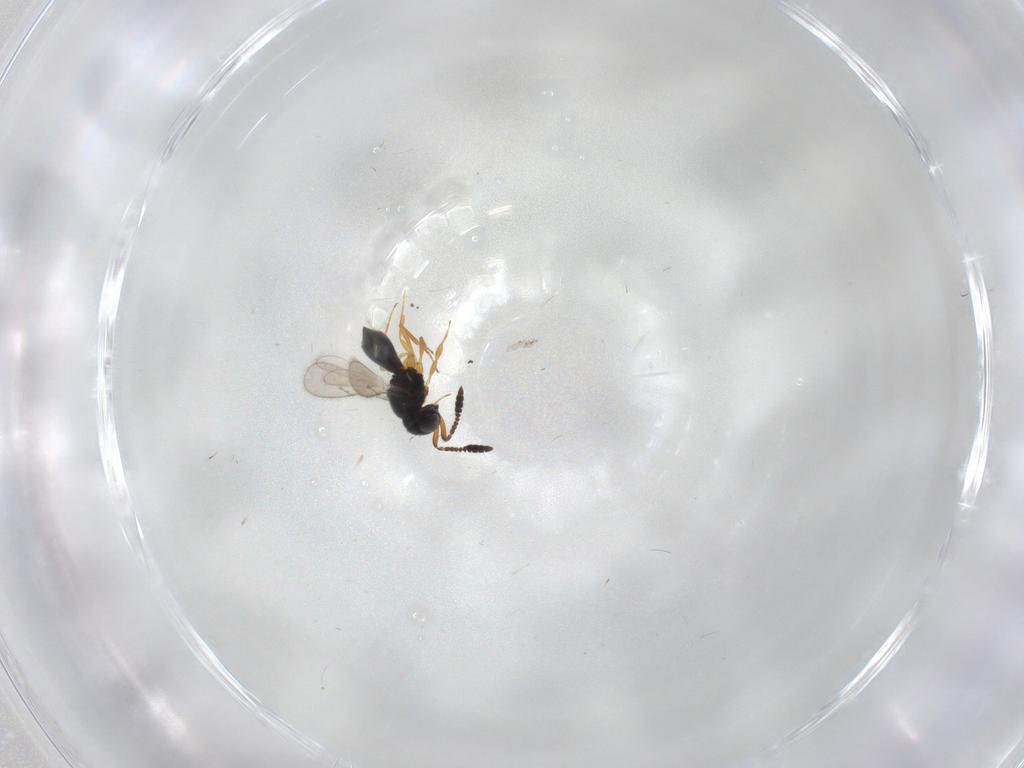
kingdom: Animalia
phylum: Arthropoda
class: Insecta
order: Hymenoptera
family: Scelionidae
